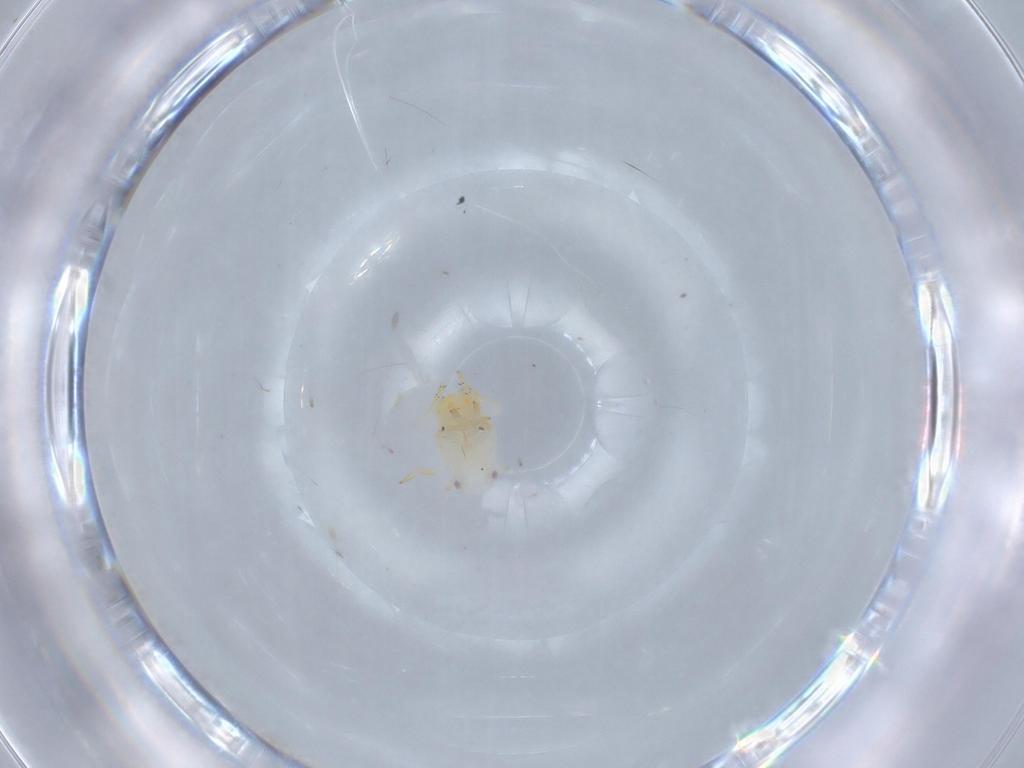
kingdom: Animalia
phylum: Arthropoda
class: Insecta
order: Hemiptera
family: Flatidae
